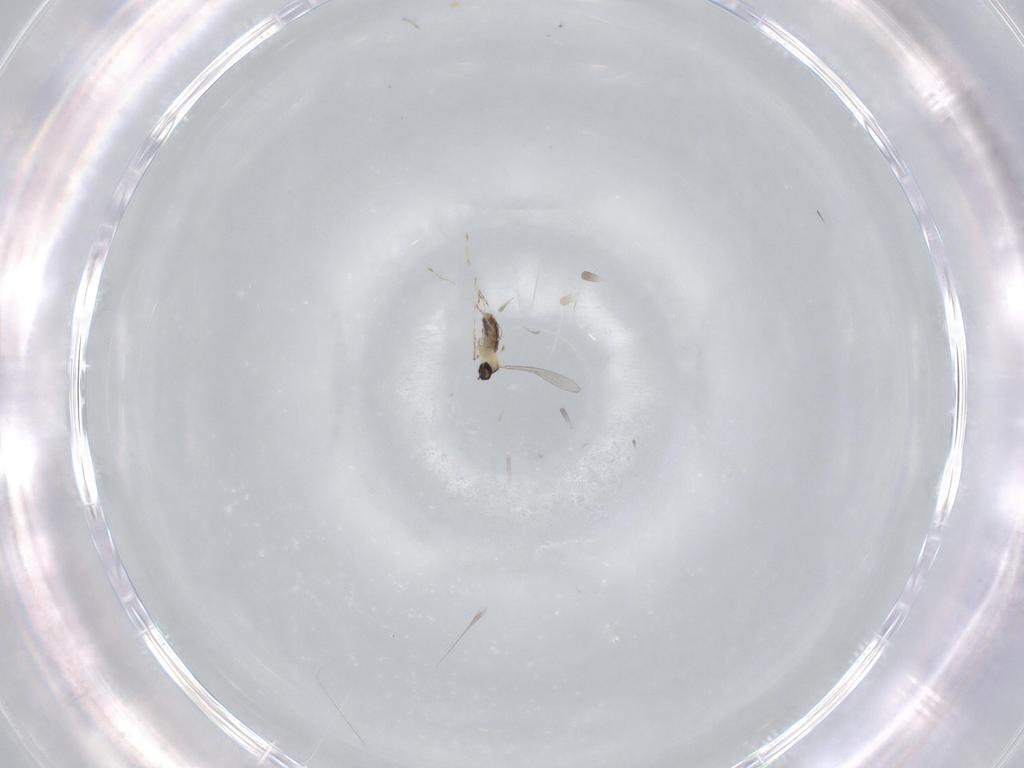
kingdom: Animalia
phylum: Arthropoda
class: Insecta
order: Diptera
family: Cecidomyiidae
